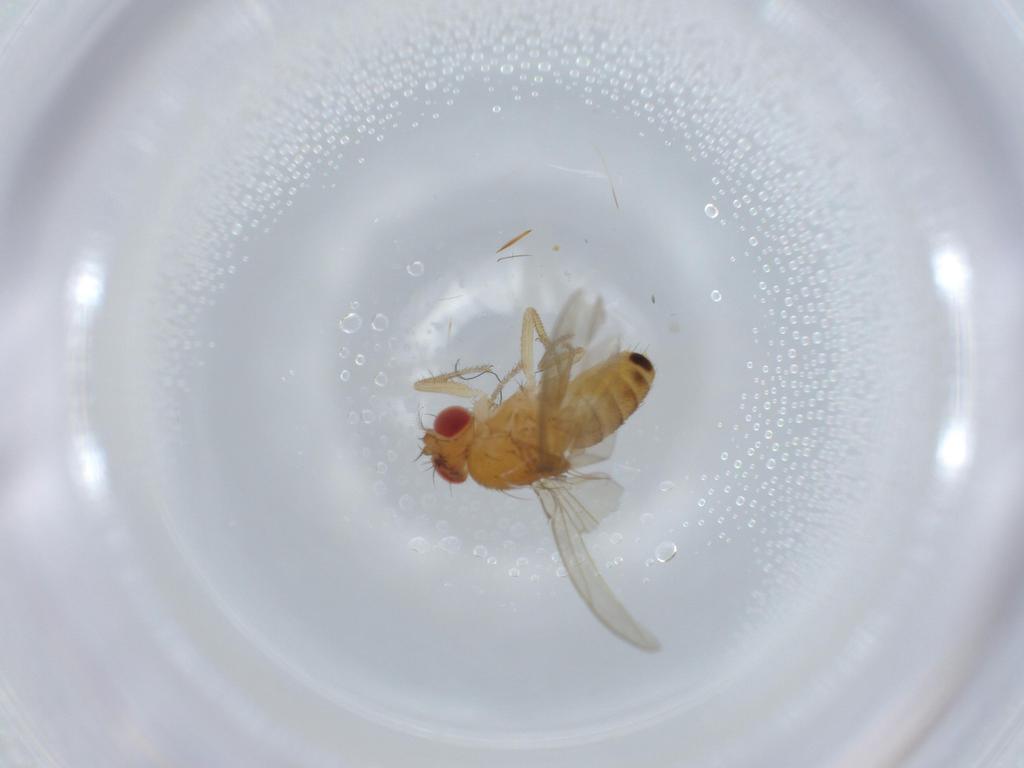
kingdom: Animalia
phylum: Arthropoda
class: Insecta
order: Diptera
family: Drosophilidae
